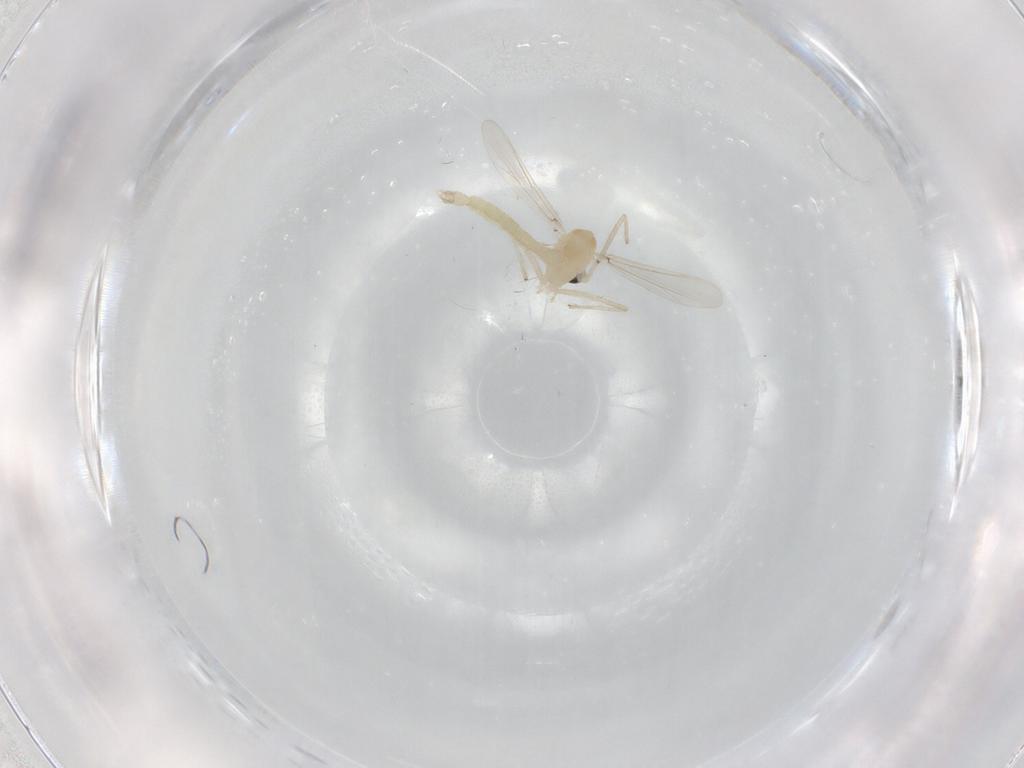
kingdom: Animalia
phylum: Arthropoda
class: Insecta
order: Diptera
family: Chironomidae
